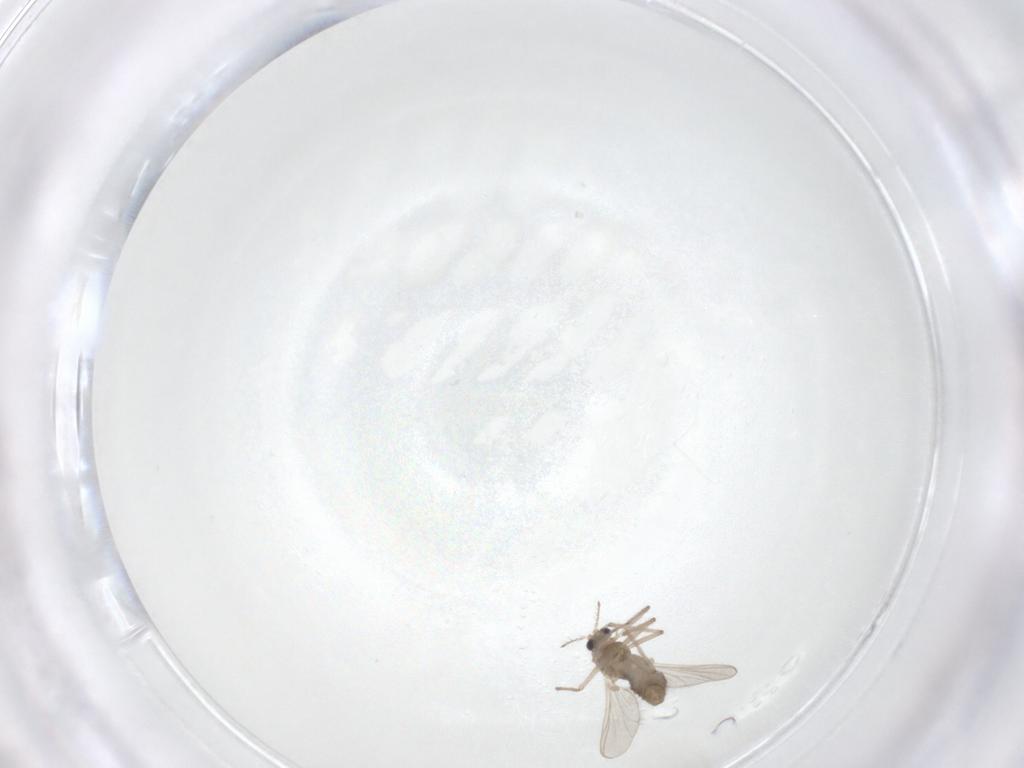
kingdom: Animalia
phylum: Arthropoda
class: Insecta
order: Diptera
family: Chironomidae
